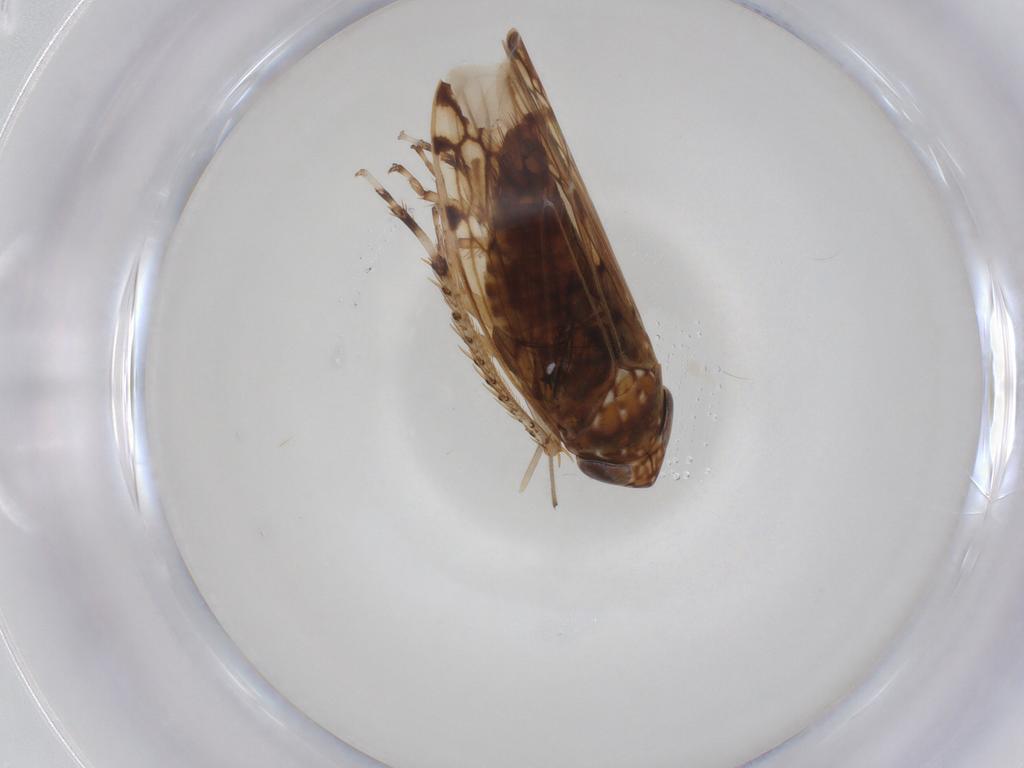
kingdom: Animalia
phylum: Arthropoda
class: Insecta
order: Hemiptera
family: Cicadellidae
